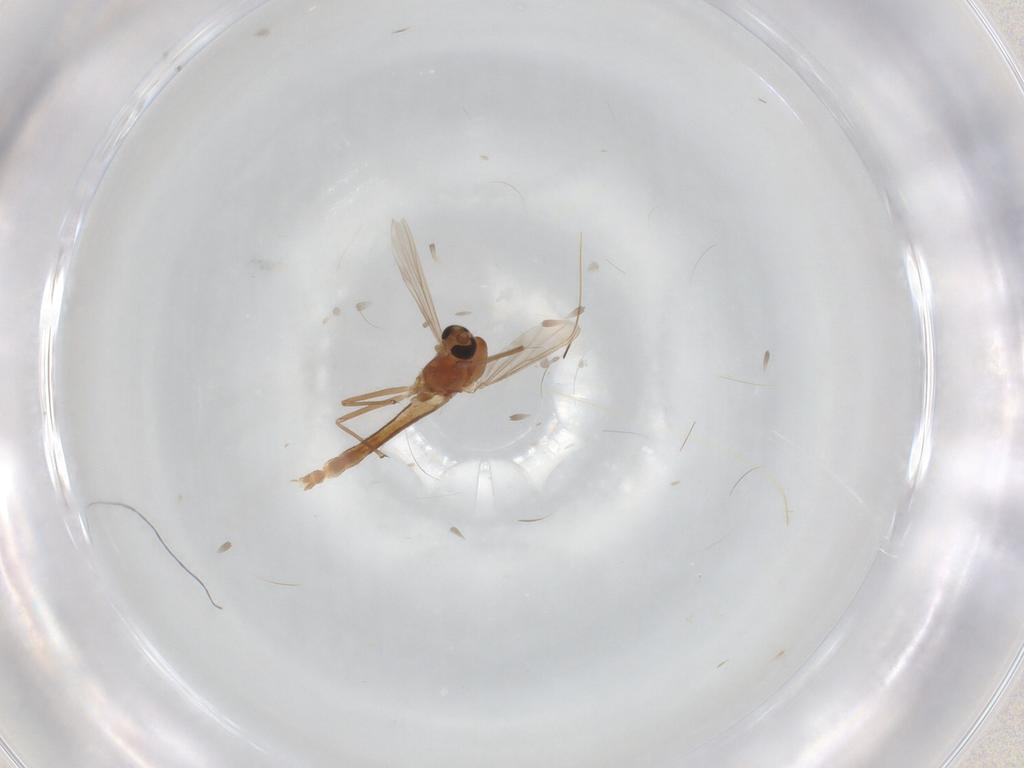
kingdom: Animalia
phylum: Arthropoda
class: Insecta
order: Diptera
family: Chironomidae
